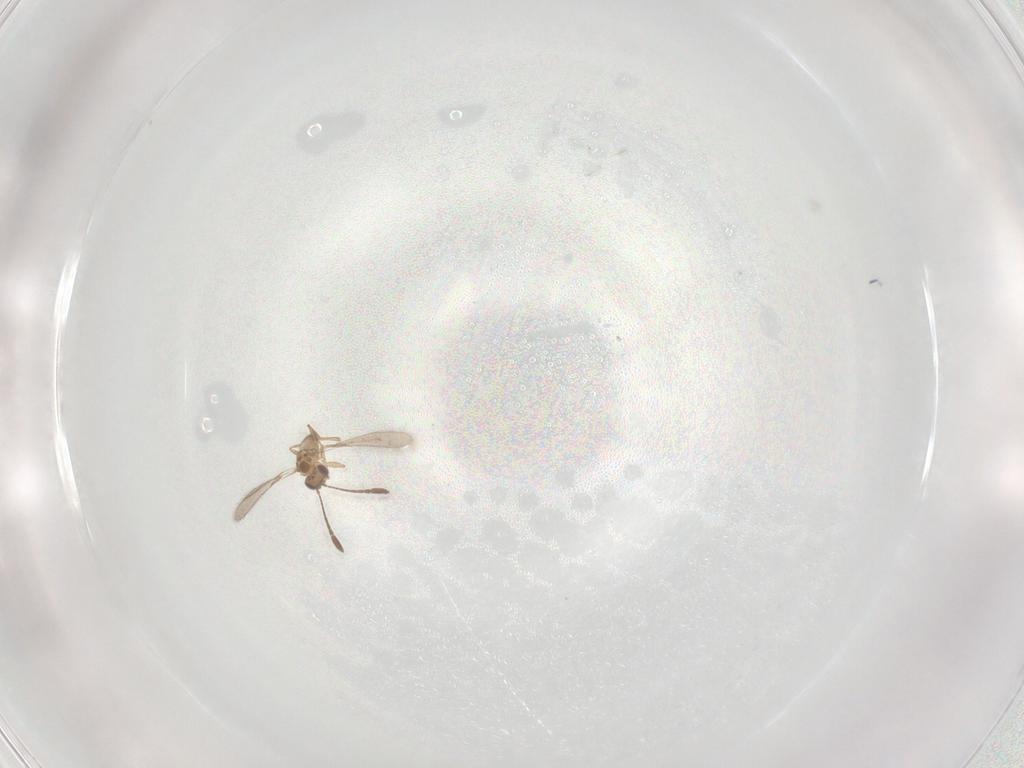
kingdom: Animalia
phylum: Arthropoda
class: Insecta
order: Hymenoptera
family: Mymaridae
